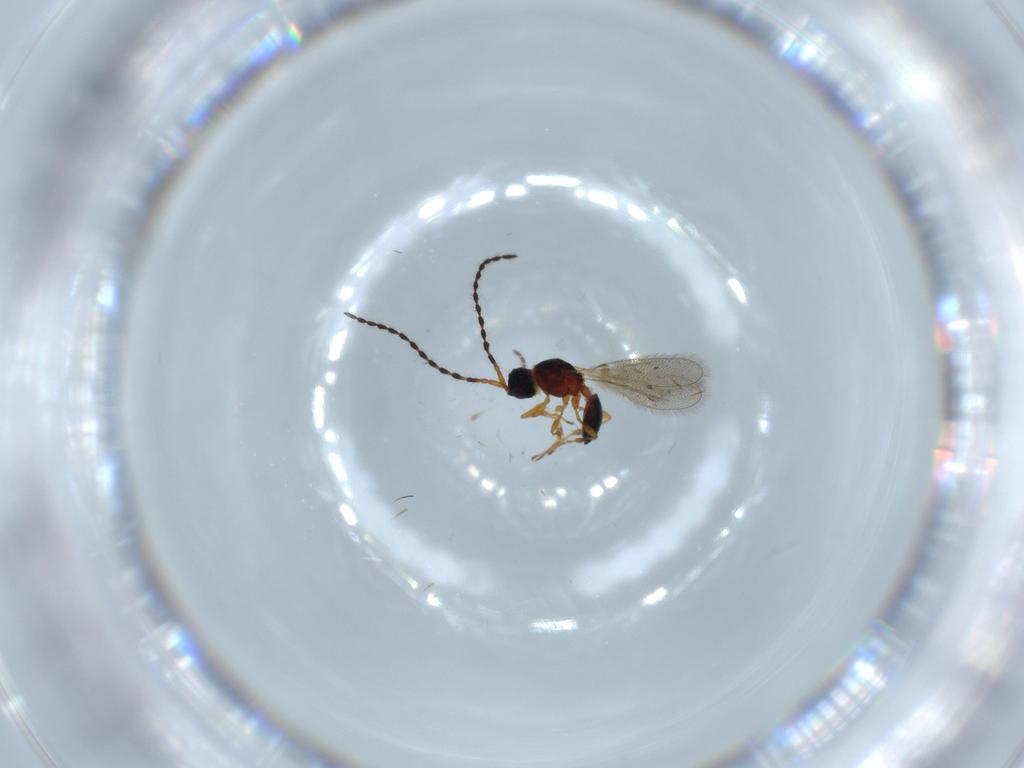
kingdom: Animalia
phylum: Arthropoda
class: Insecta
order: Hymenoptera
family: Diapriidae
